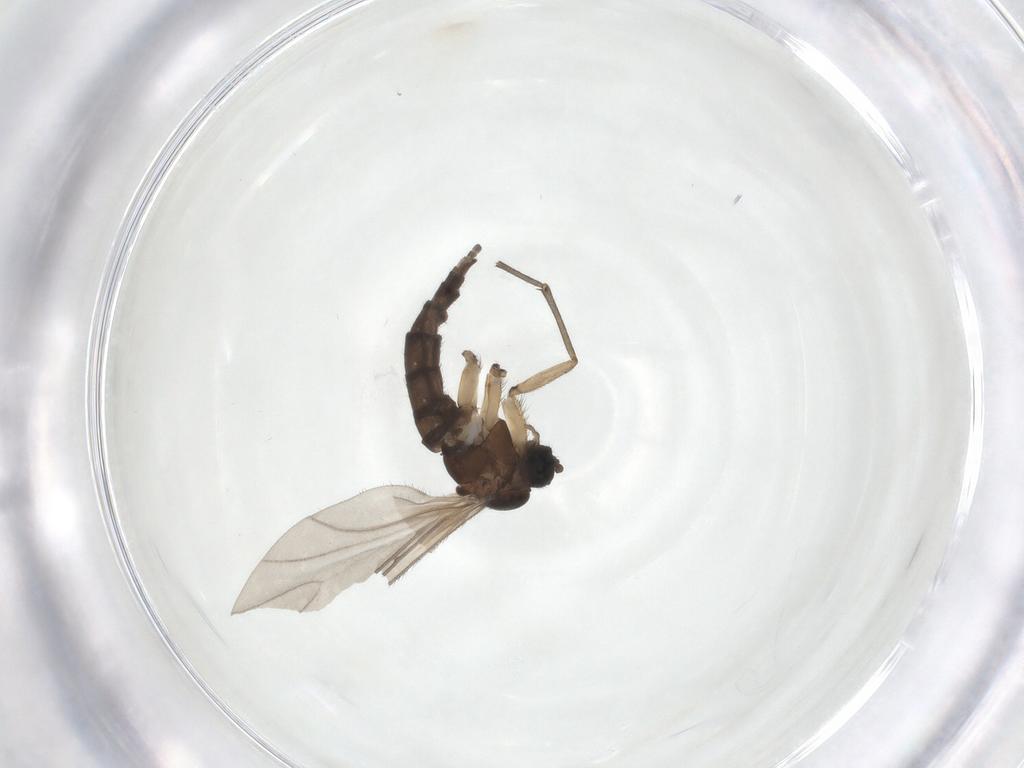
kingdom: Animalia
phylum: Arthropoda
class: Insecta
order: Diptera
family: Sciaridae
